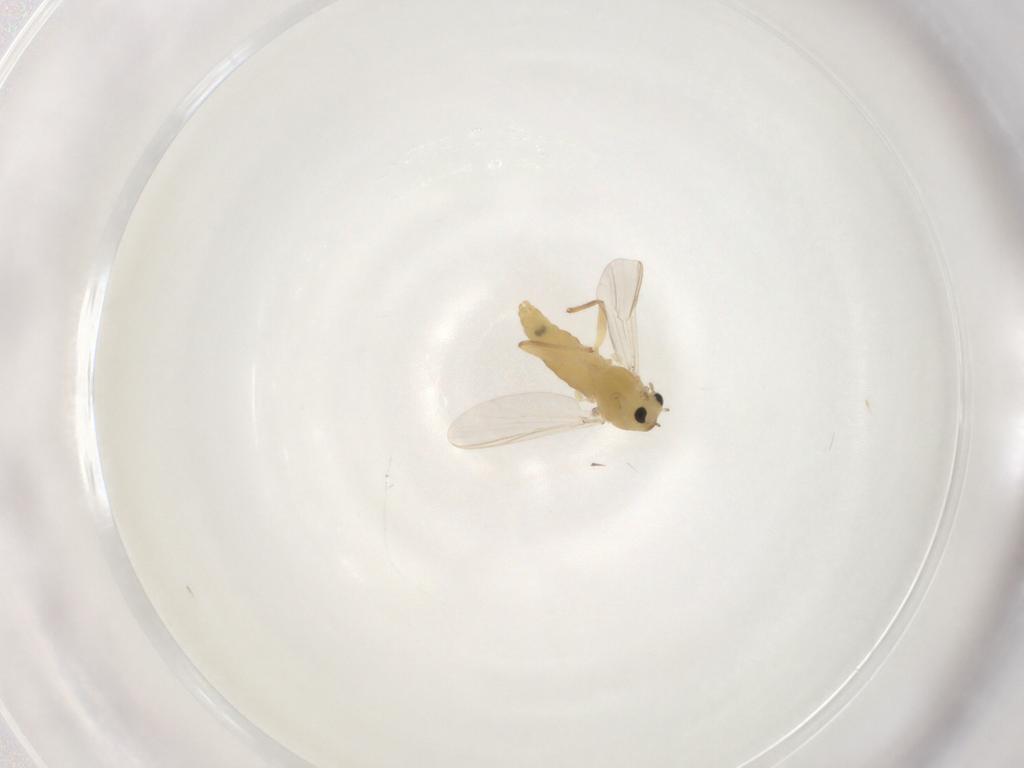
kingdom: Animalia
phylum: Arthropoda
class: Insecta
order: Diptera
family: Chironomidae
